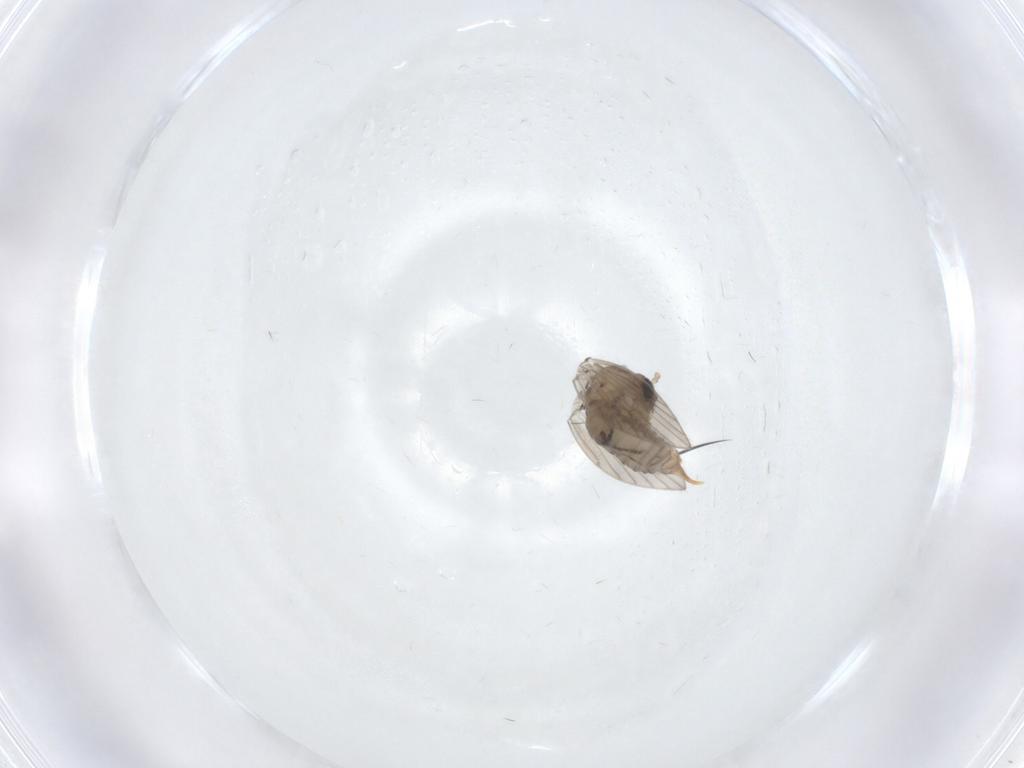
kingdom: Animalia
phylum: Arthropoda
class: Insecta
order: Diptera
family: Psychodidae
